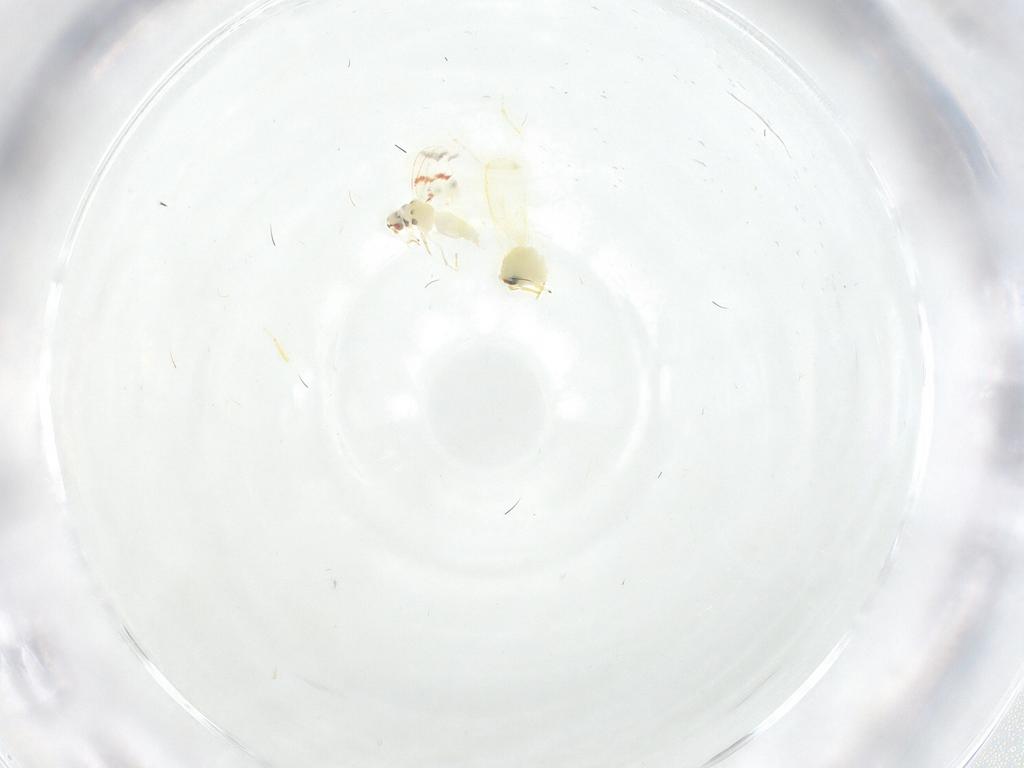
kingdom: Animalia
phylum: Arthropoda
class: Insecta
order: Hemiptera
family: Aleyrodidae
